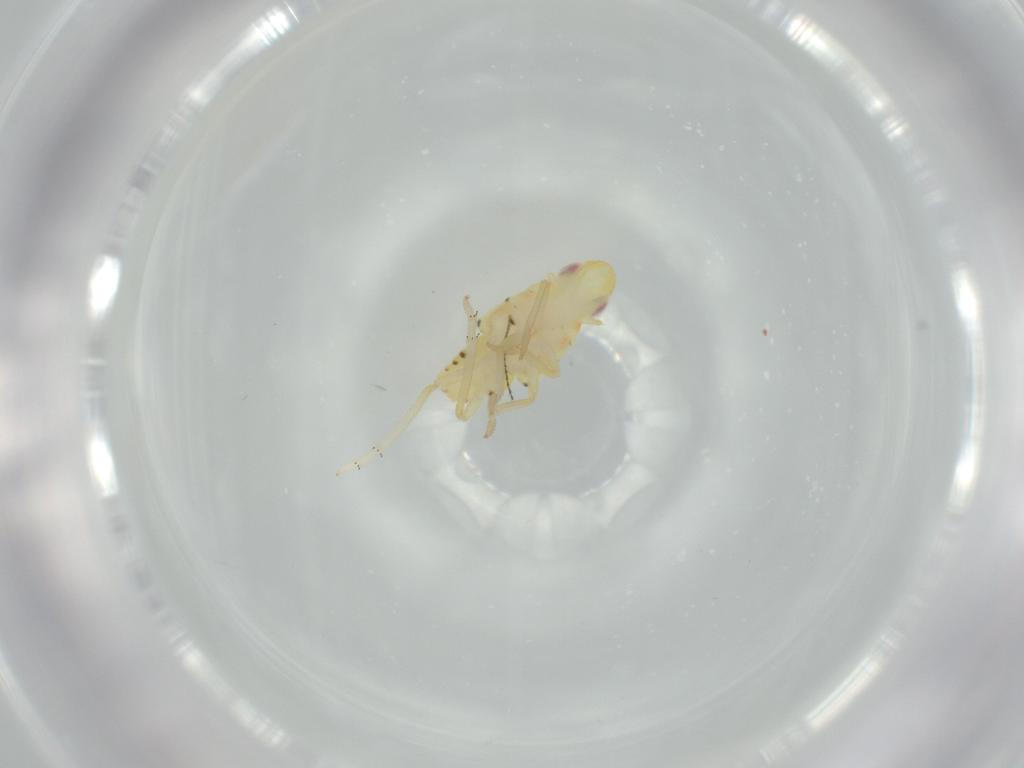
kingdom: Animalia
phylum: Arthropoda
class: Insecta
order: Hemiptera
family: Tropiduchidae
